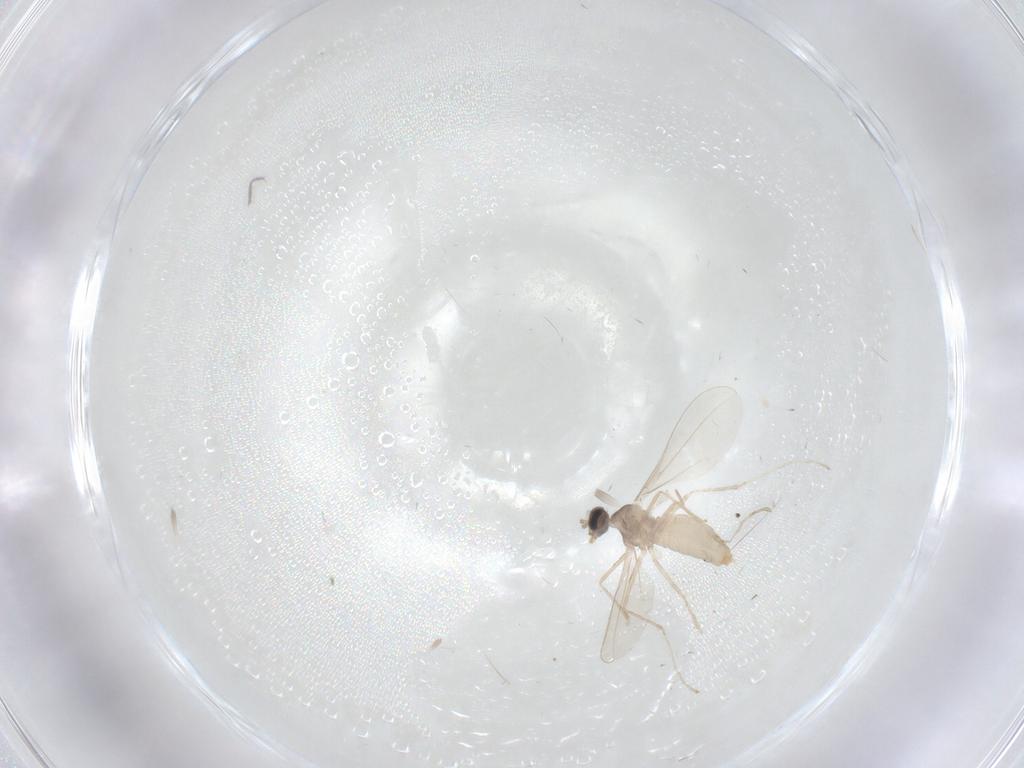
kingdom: Animalia
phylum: Arthropoda
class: Insecta
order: Diptera
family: Cecidomyiidae
